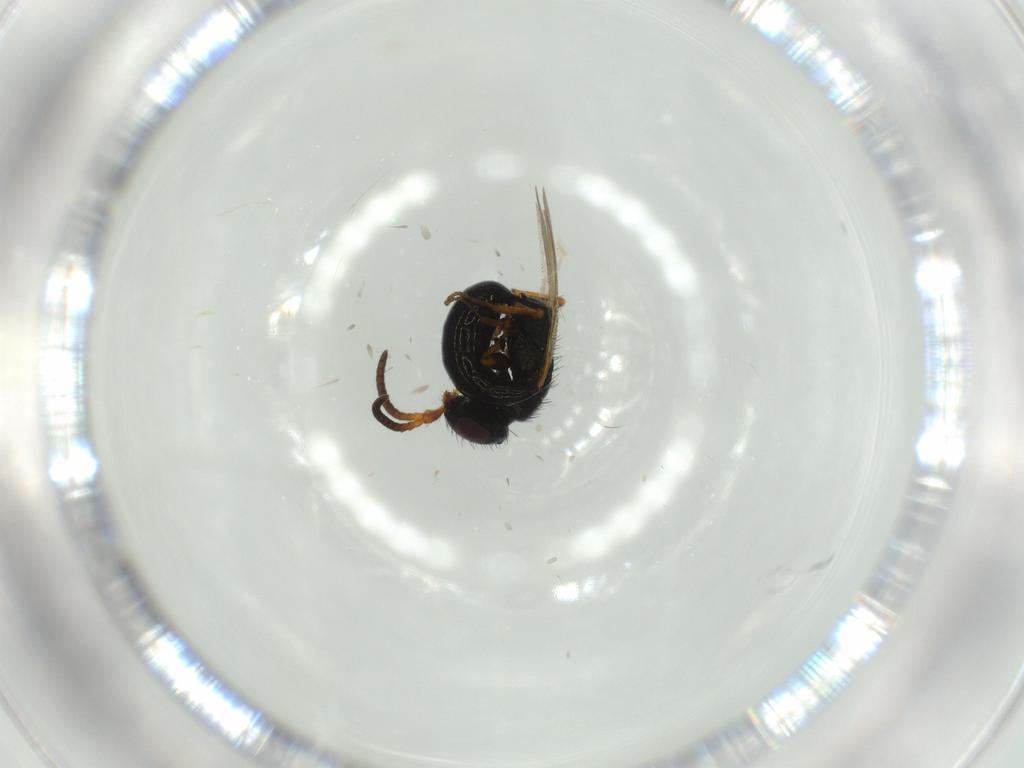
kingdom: Animalia
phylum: Arthropoda
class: Insecta
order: Hymenoptera
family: Bethylidae
